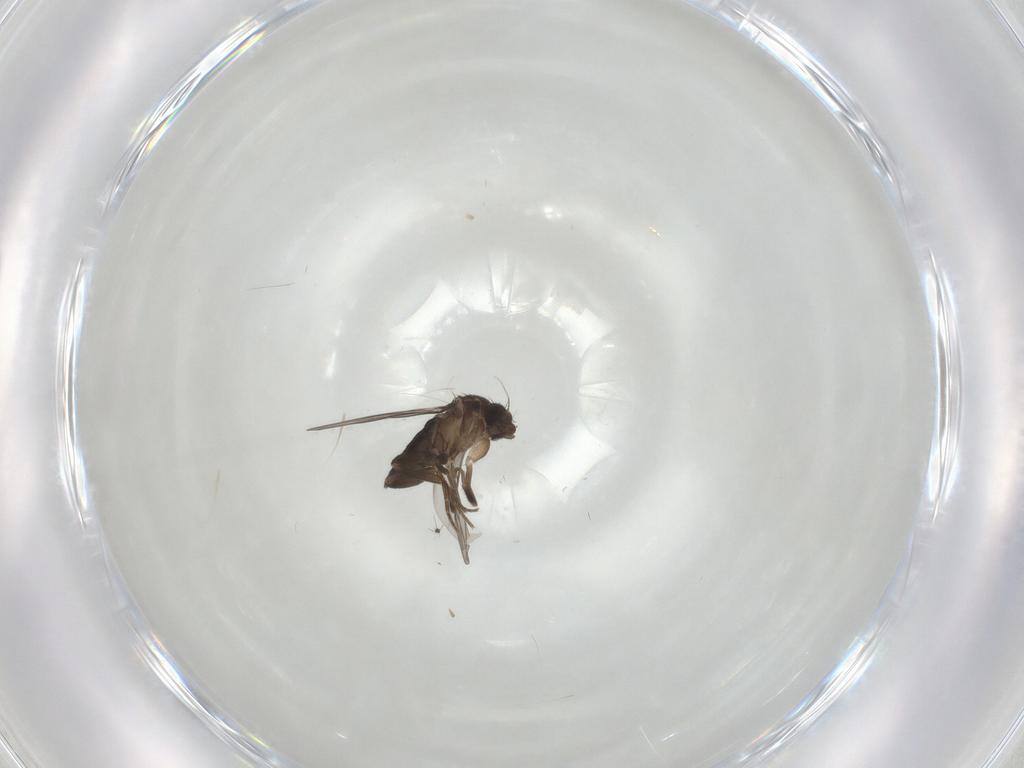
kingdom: Animalia
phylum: Arthropoda
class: Insecta
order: Diptera
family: Phoridae
